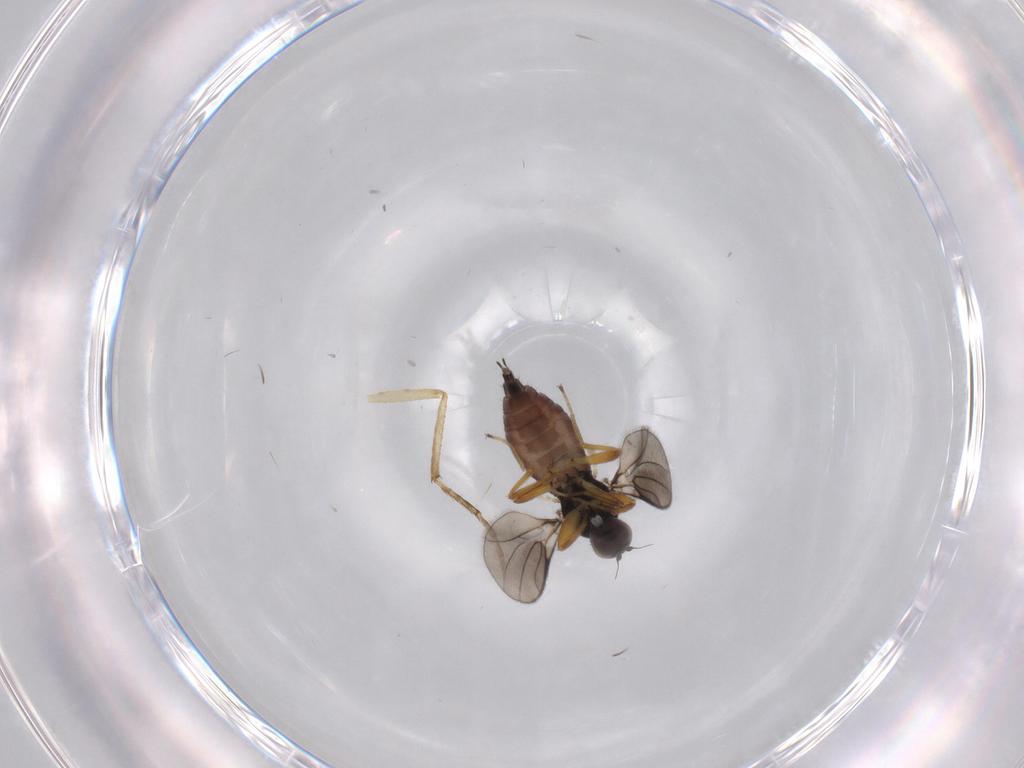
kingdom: Animalia
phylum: Arthropoda
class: Insecta
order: Diptera
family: Hybotidae
